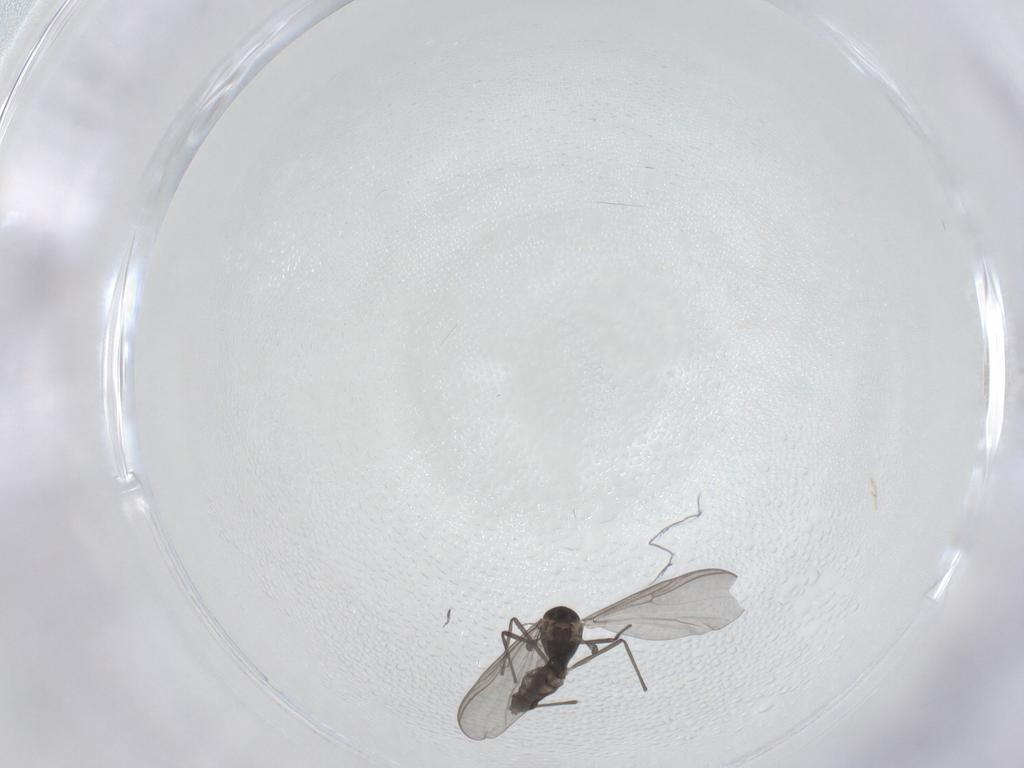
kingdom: Animalia
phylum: Arthropoda
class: Insecta
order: Diptera
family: Chironomidae
